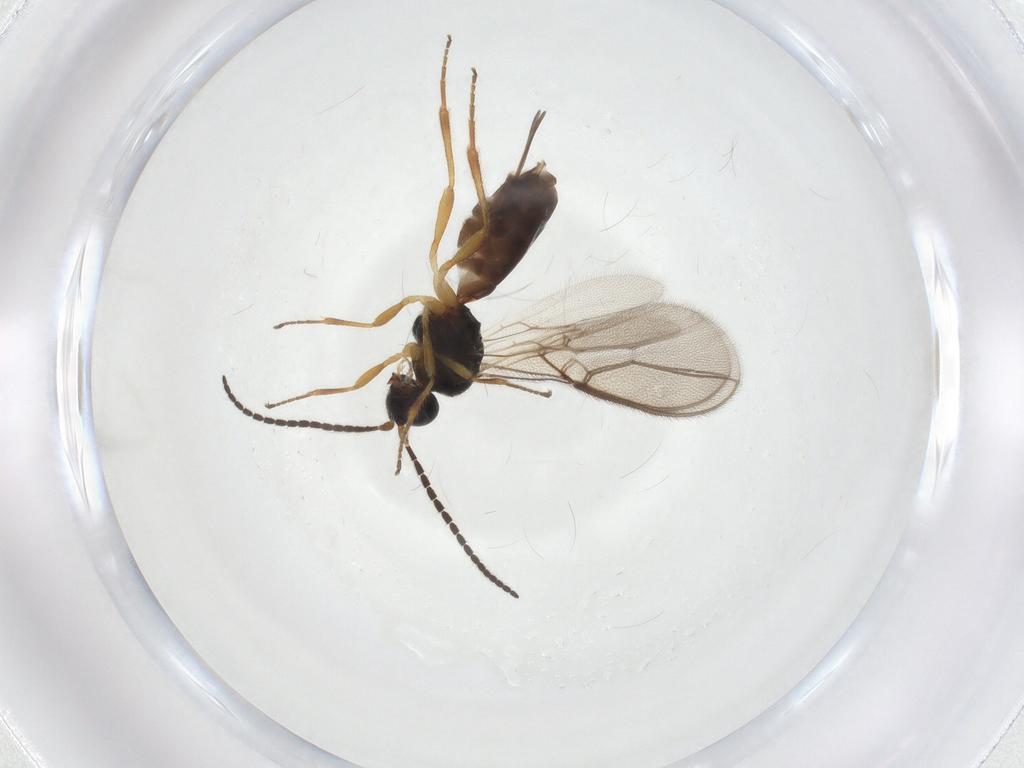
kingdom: Animalia
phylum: Arthropoda
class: Insecta
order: Hymenoptera
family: Braconidae
